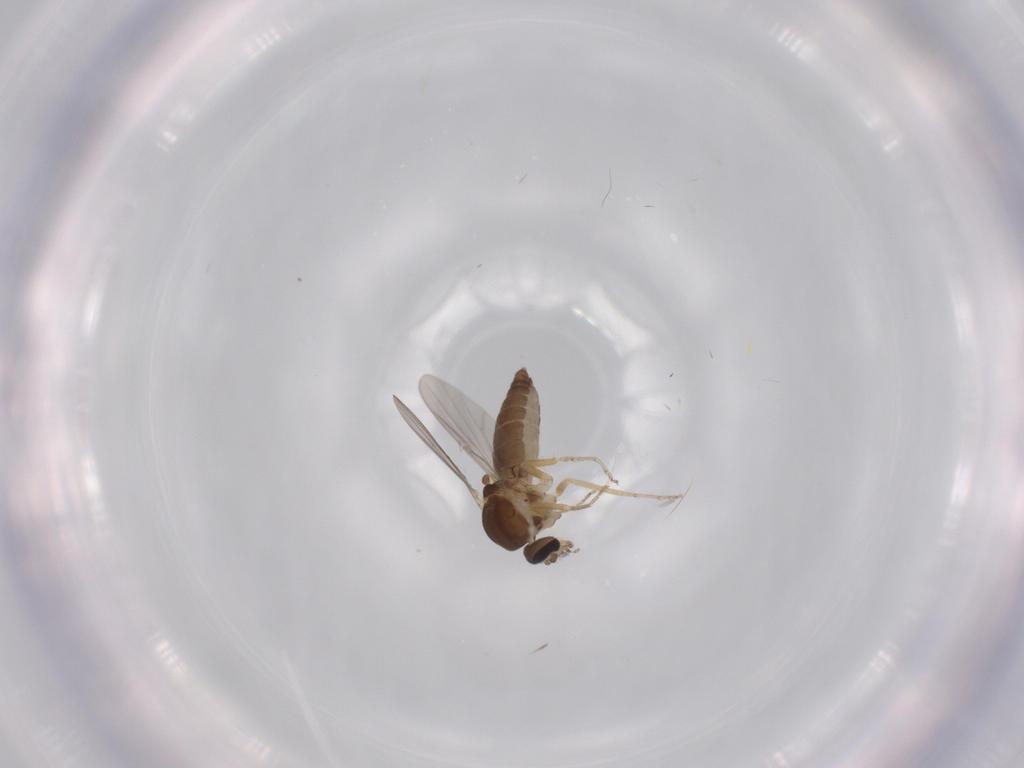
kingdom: Animalia
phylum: Arthropoda
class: Insecta
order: Diptera
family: Ceratopogonidae
